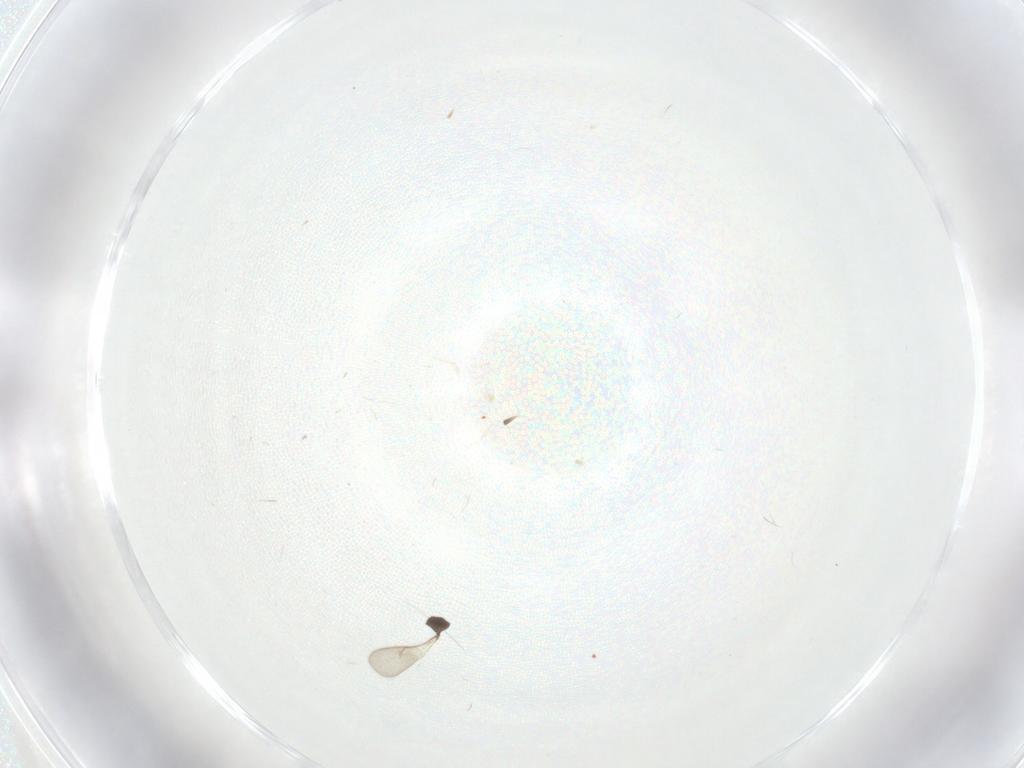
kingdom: Animalia
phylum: Arthropoda
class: Insecta
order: Hymenoptera
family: Scelionidae
